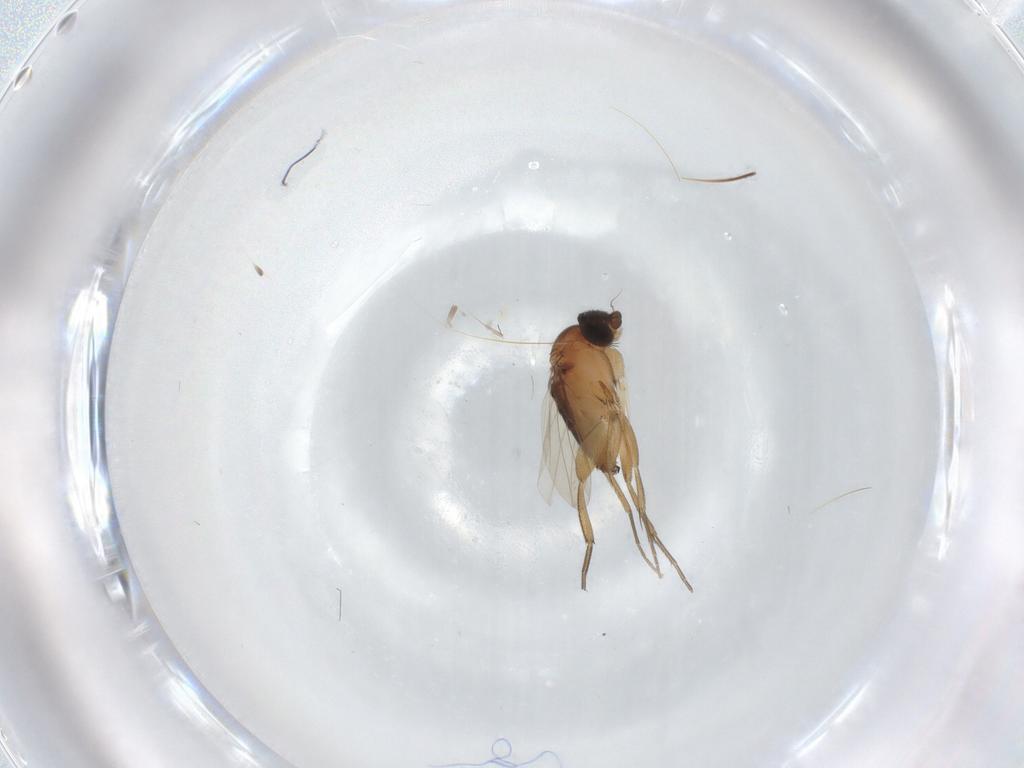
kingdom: Animalia
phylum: Arthropoda
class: Insecta
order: Diptera
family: Phoridae
